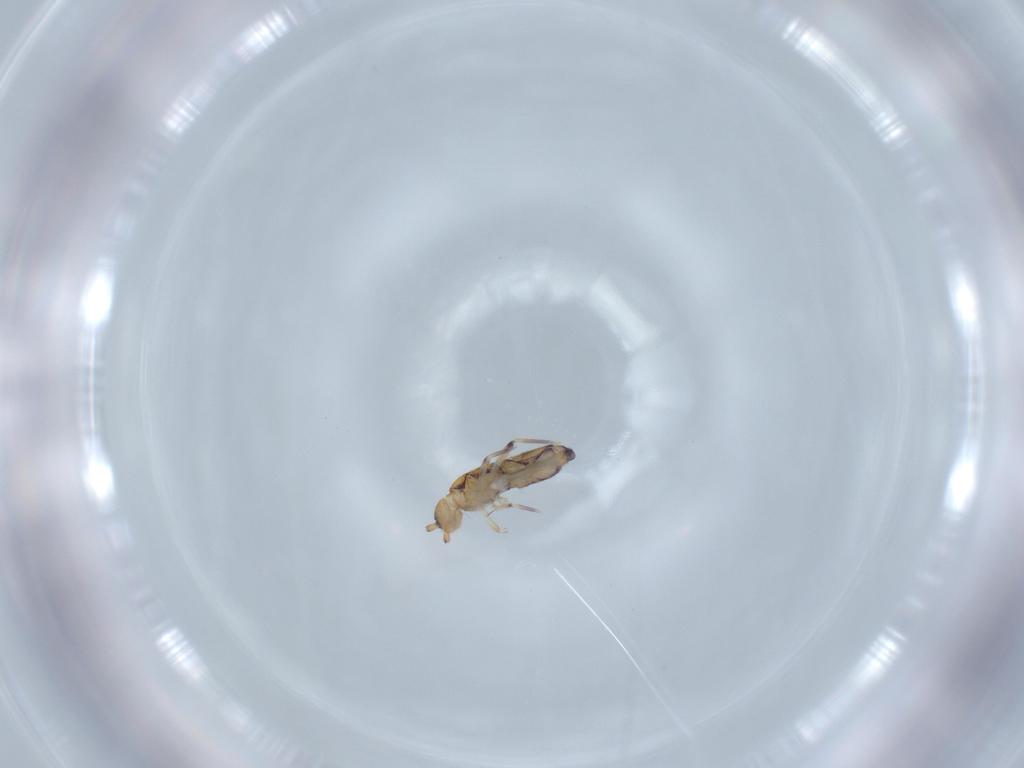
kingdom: Animalia
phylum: Arthropoda
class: Collembola
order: Entomobryomorpha
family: Entomobryidae
